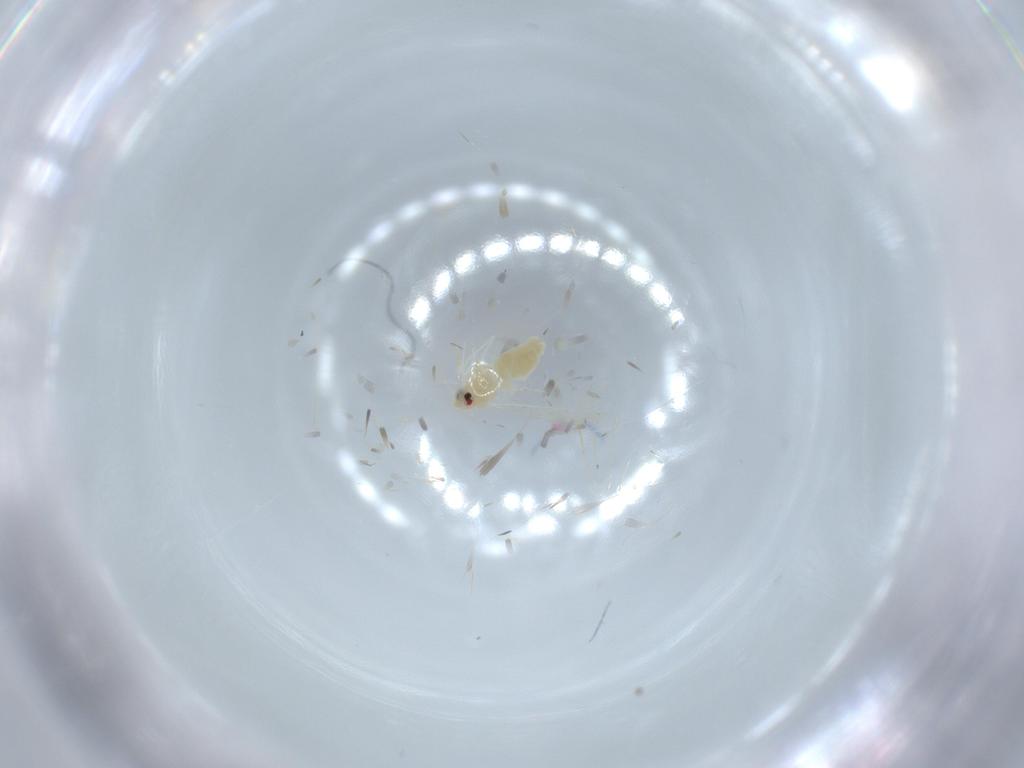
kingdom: Animalia
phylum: Arthropoda
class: Insecta
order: Hemiptera
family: Aleyrodidae
